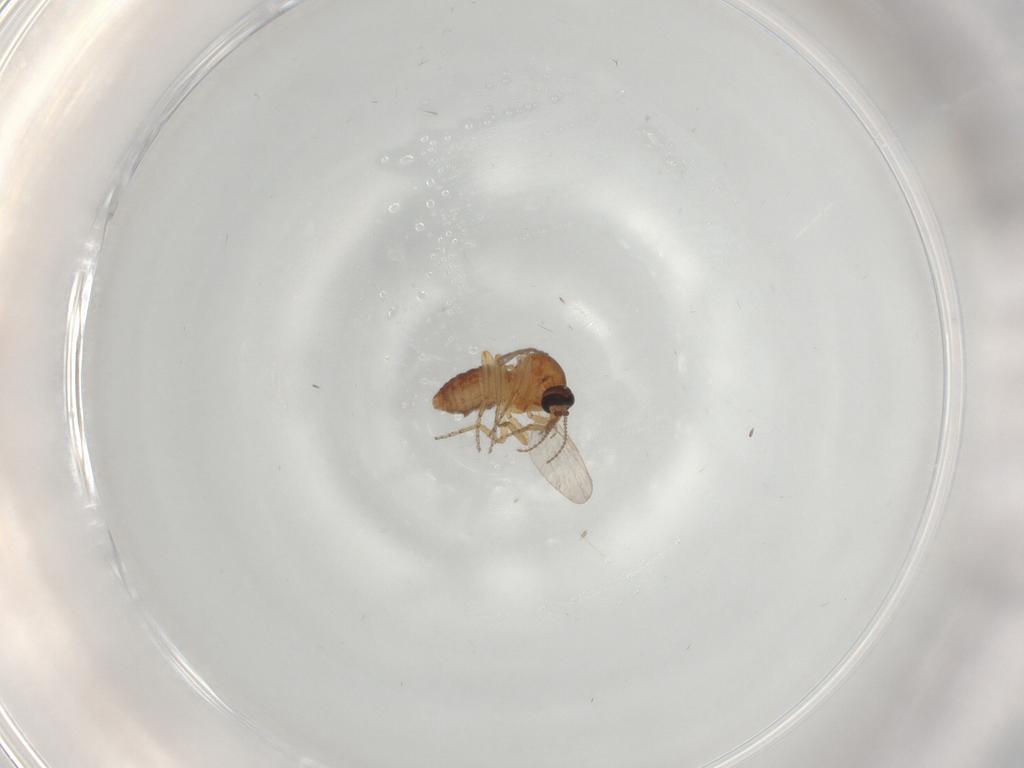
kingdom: Animalia
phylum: Arthropoda
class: Insecta
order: Diptera
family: Ceratopogonidae
